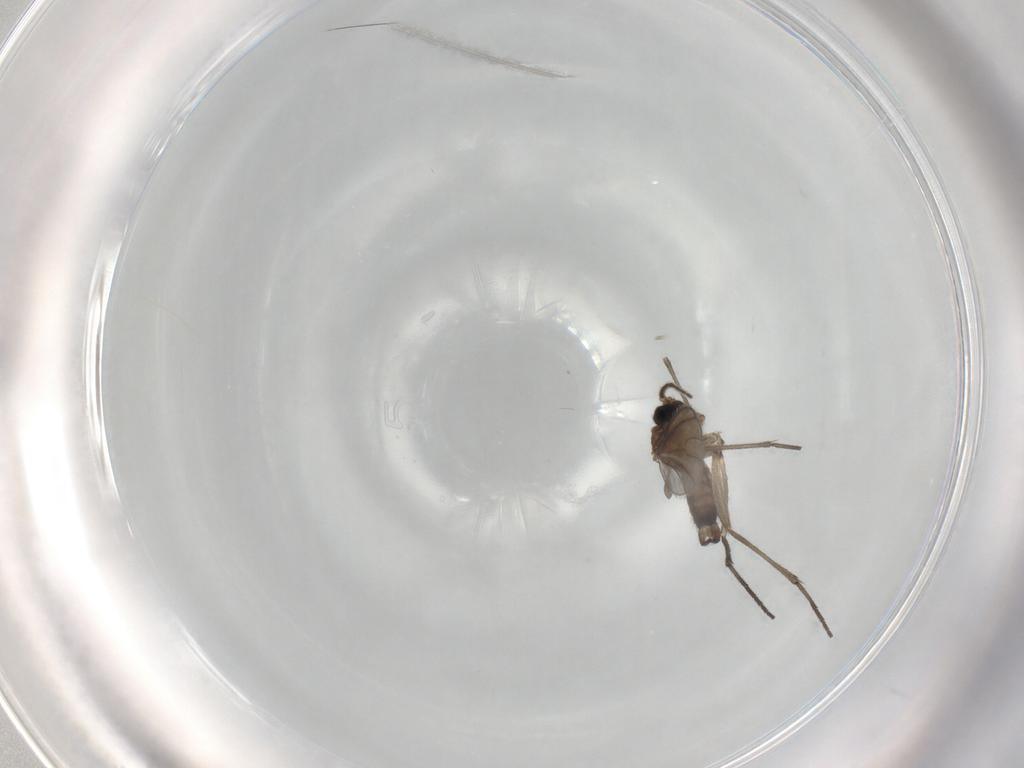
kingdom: Animalia
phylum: Arthropoda
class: Insecta
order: Diptera
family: Sciaridae
